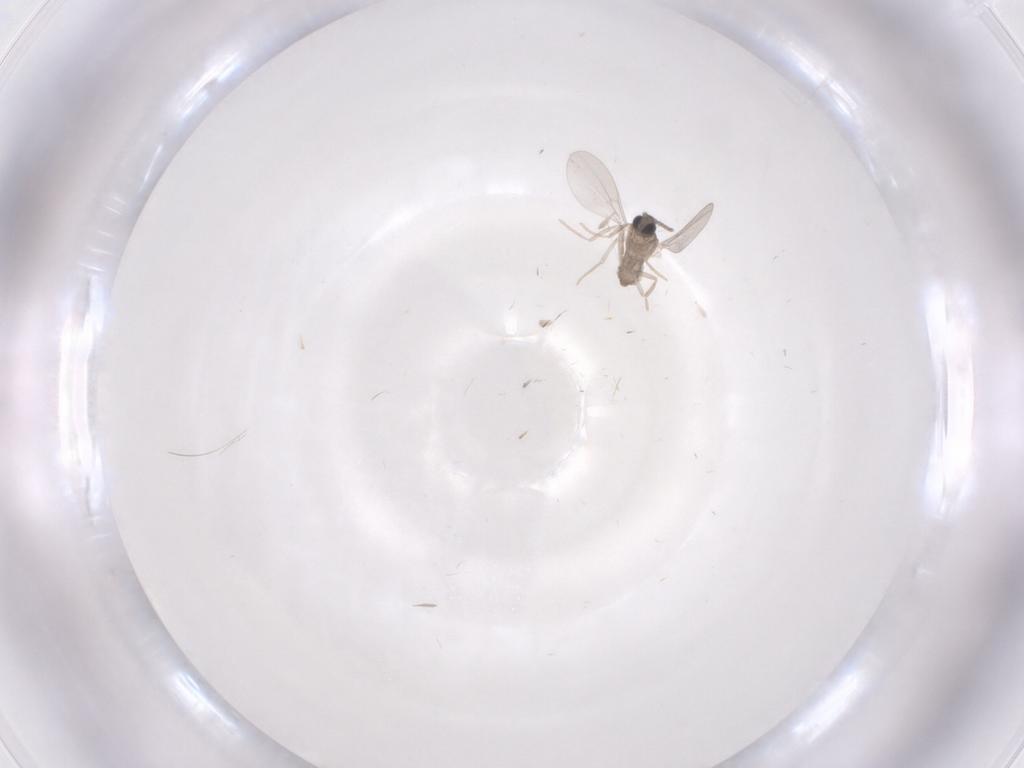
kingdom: Animalia
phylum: Arthropoda
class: Insecta
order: Diptera
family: Cecidomyiidae
